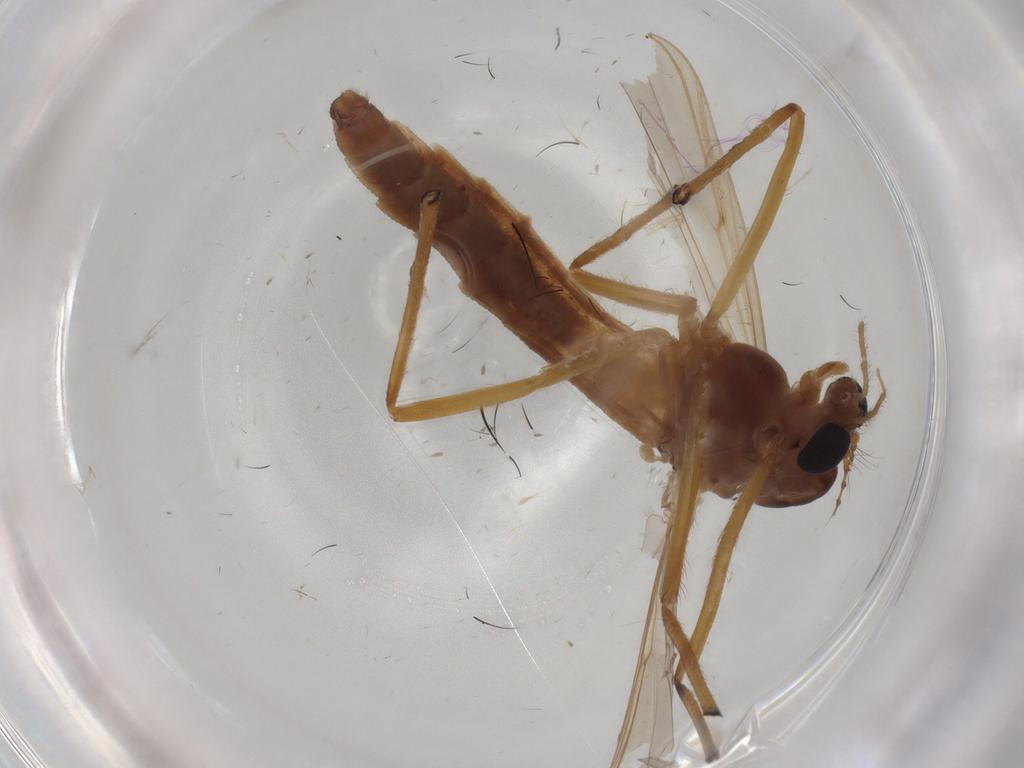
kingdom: Animalia
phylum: Arthropoda
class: Insecta
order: Diptera
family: Chironomidae
